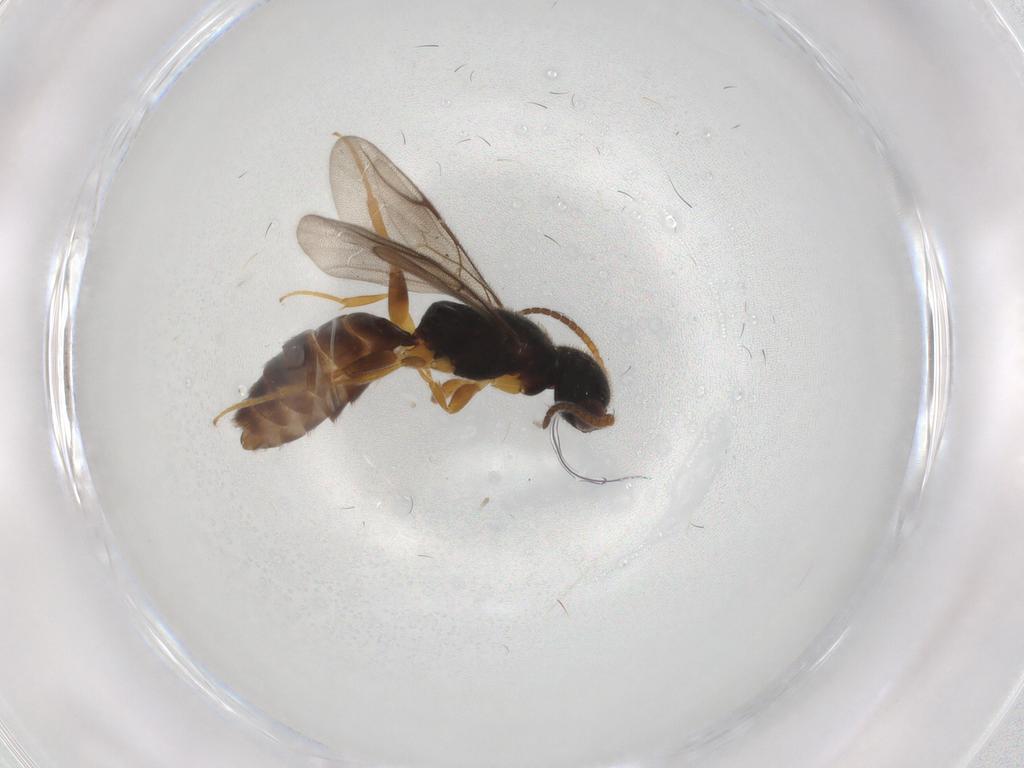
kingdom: Animalia
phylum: Arthropoda
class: Insecta
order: Hymenoptera
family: Bethylidae
